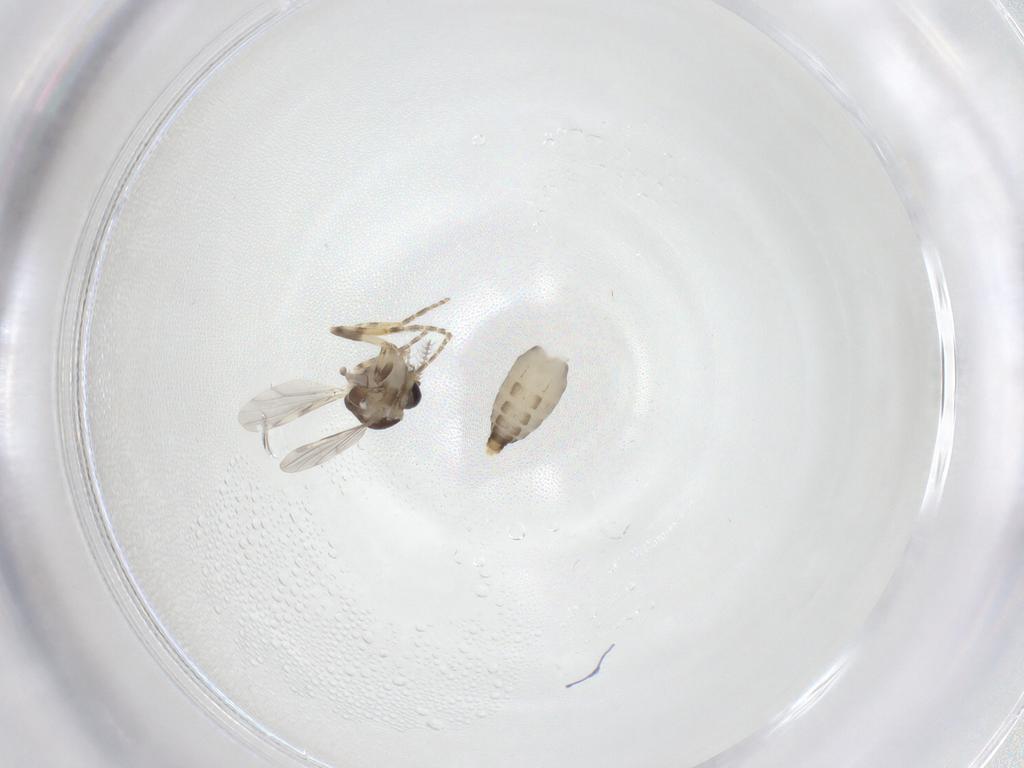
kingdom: Animalia
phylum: Arthropoda
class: Insecta
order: Diptera
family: Ceratopogonidae
